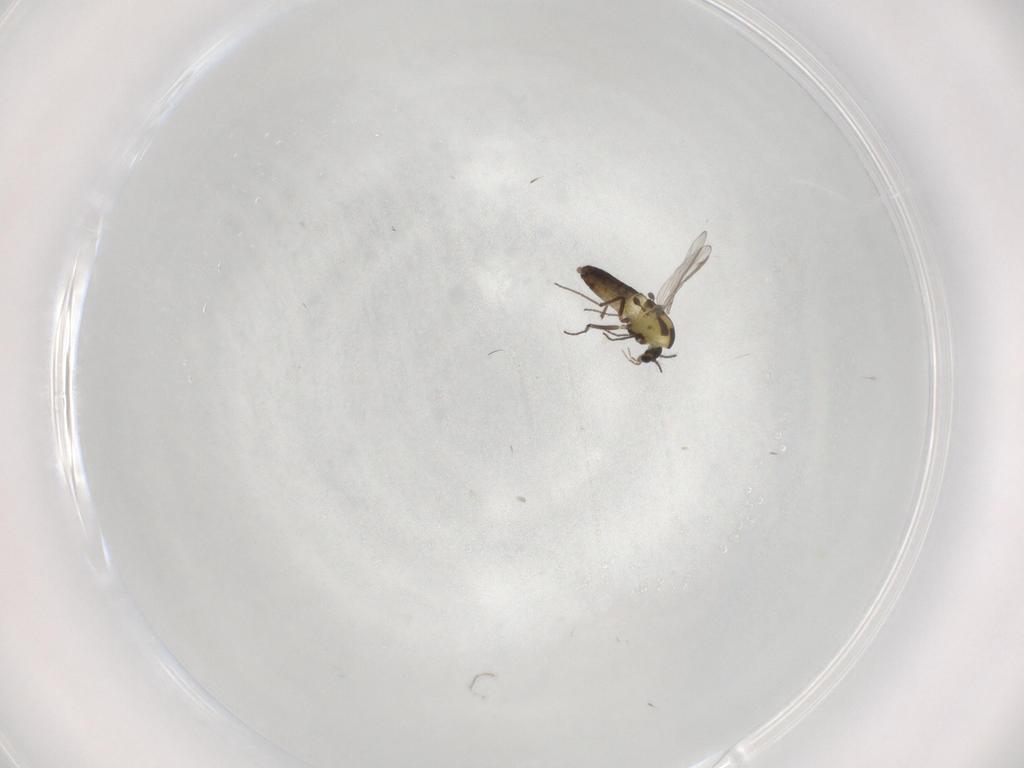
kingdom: Animalia
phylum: Arthropoda
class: Insecta
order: Diptera
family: Chironomidae
